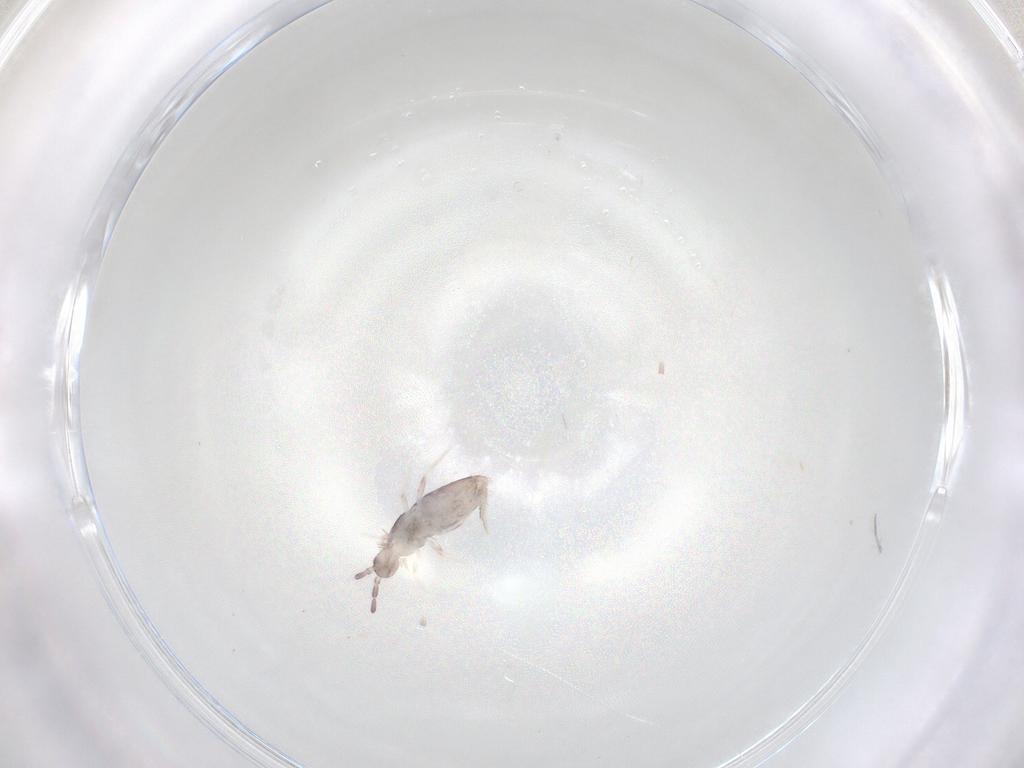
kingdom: Animalia
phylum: Arthropoda
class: Collembola
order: Poduromorpha
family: Hypogastruridae
